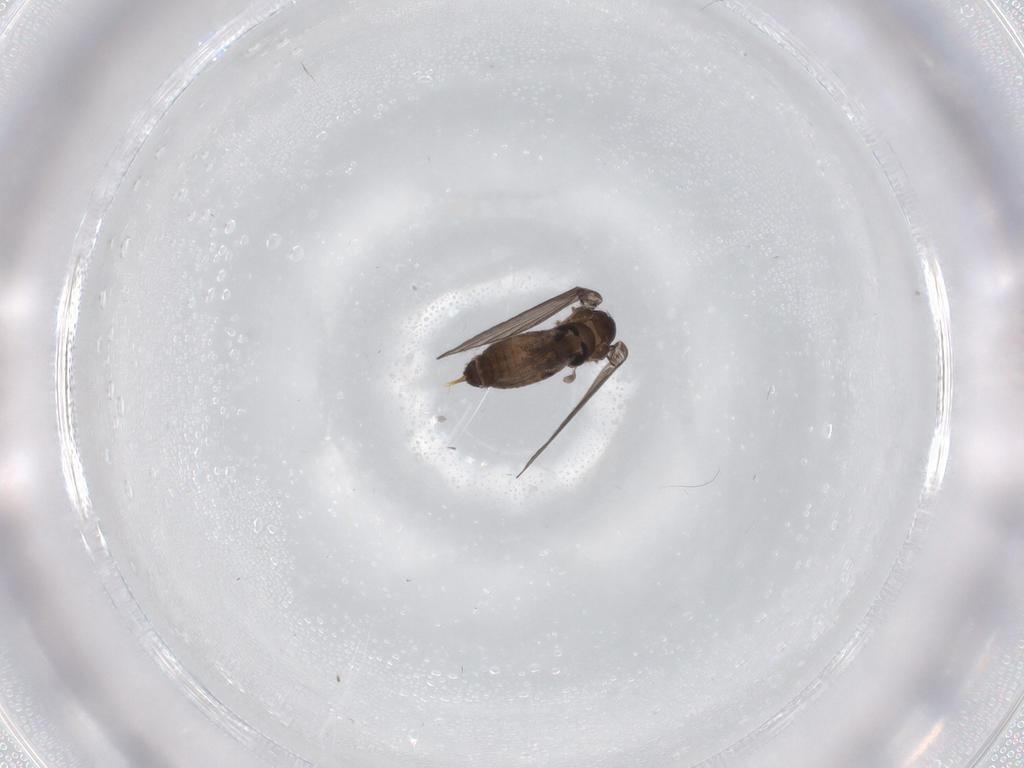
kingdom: Animalia
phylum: Arthropoda
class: Insecta
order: Diptera
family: Psychodidae
